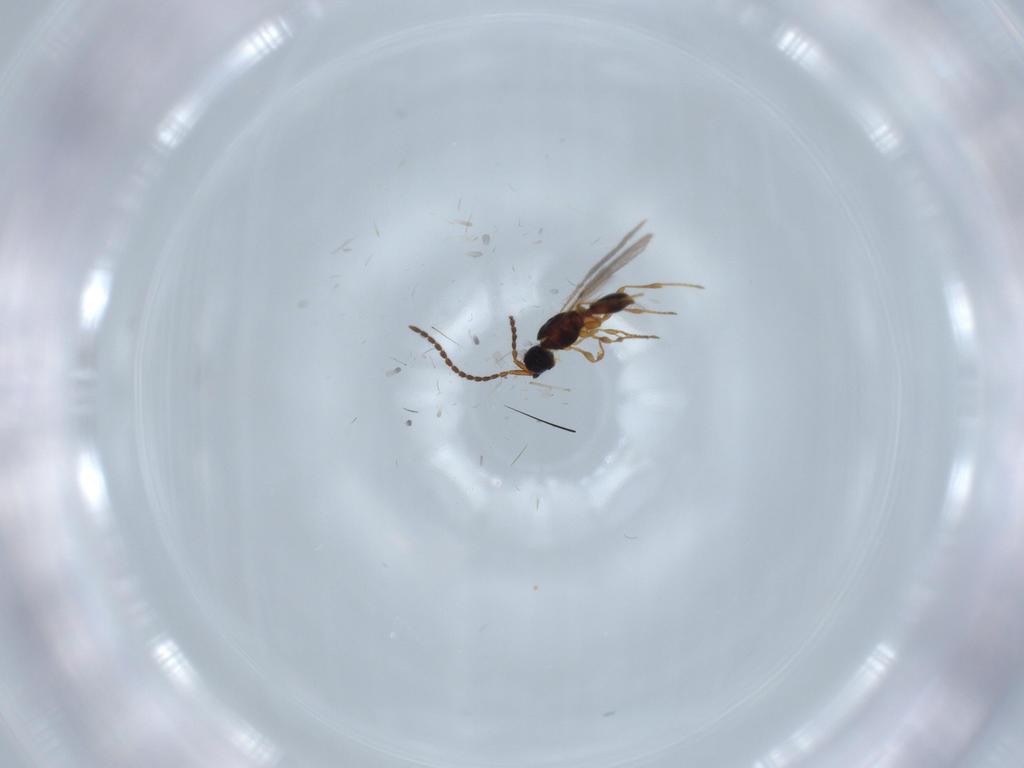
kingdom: Animalia
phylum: Arthropoda
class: Insecta
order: Hymenoptera
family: Diapriidae
